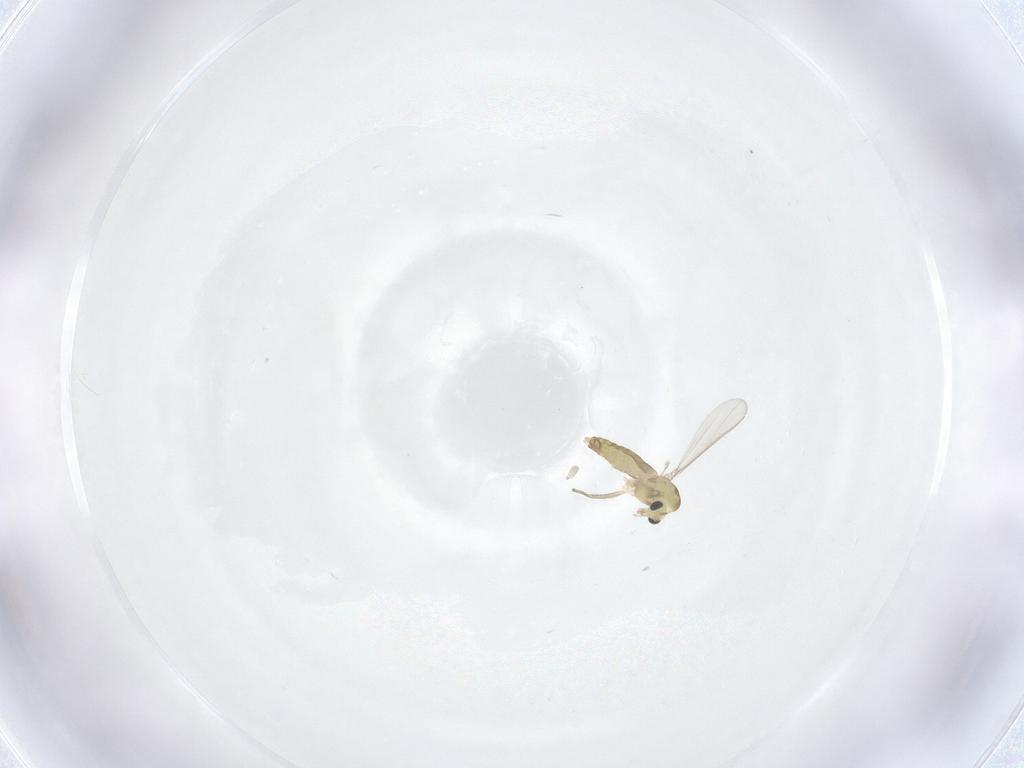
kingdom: Animalia
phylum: Arthropoda
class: Insecta
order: Diptera
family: Chironomidae
